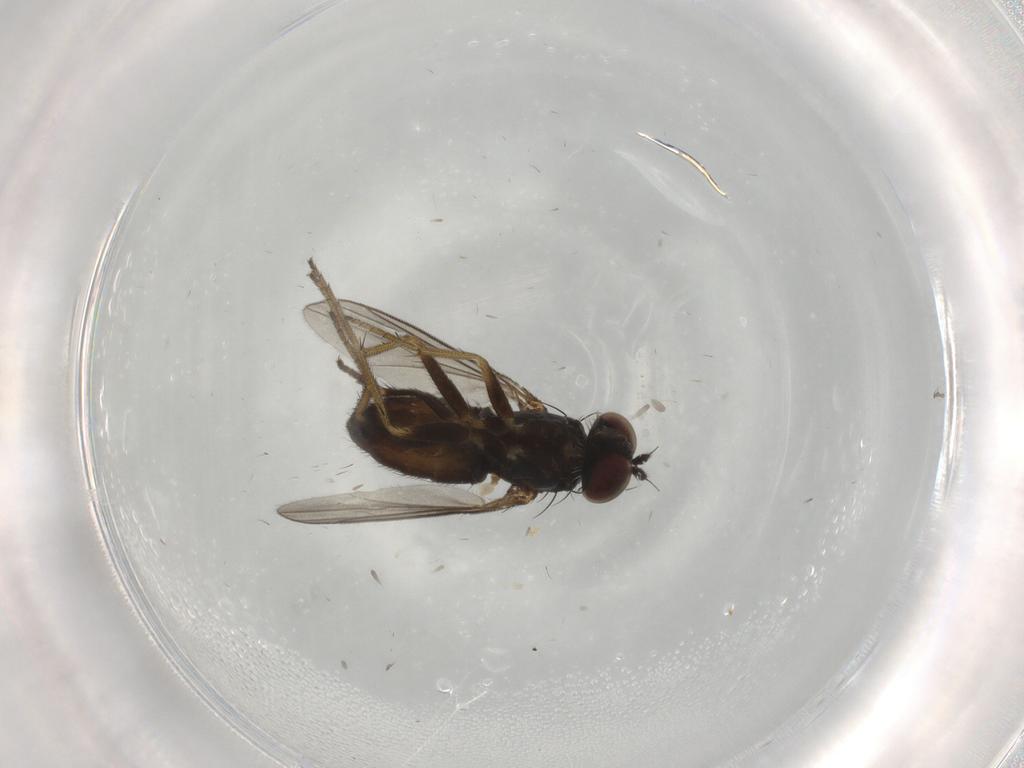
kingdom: Animalia
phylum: Arthropoda
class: Insecta
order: Diptera
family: Dolichopodidae
